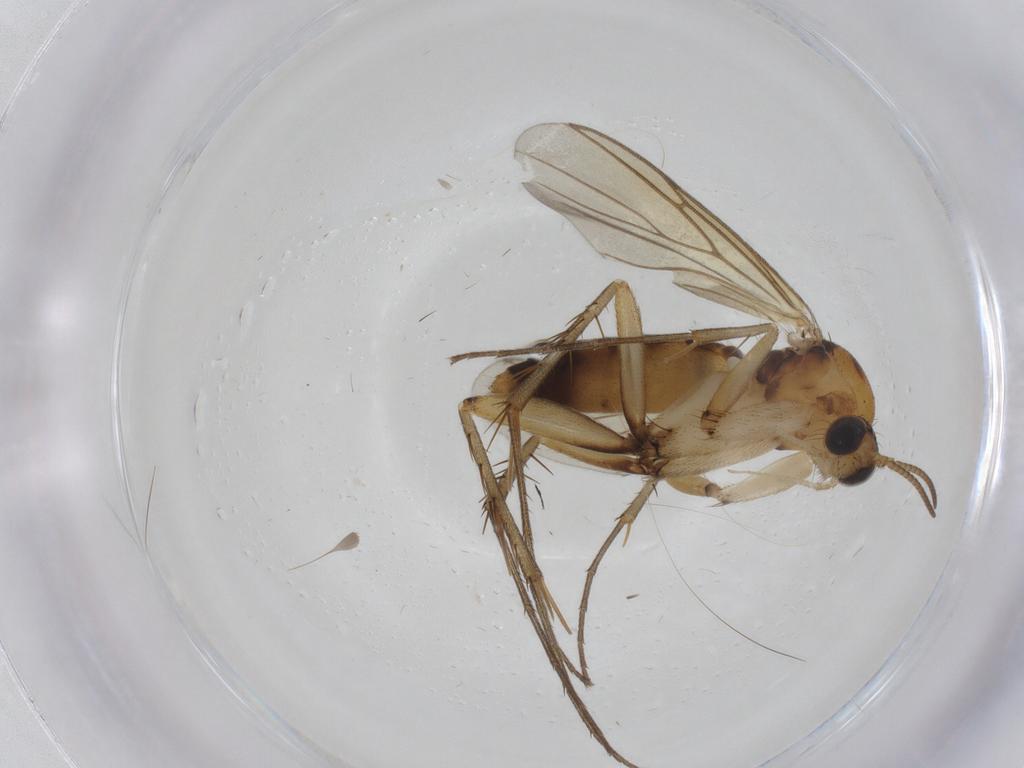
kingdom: Animalia
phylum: Arthropoda
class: Insecta
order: Diptera
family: Mycetophilidae
